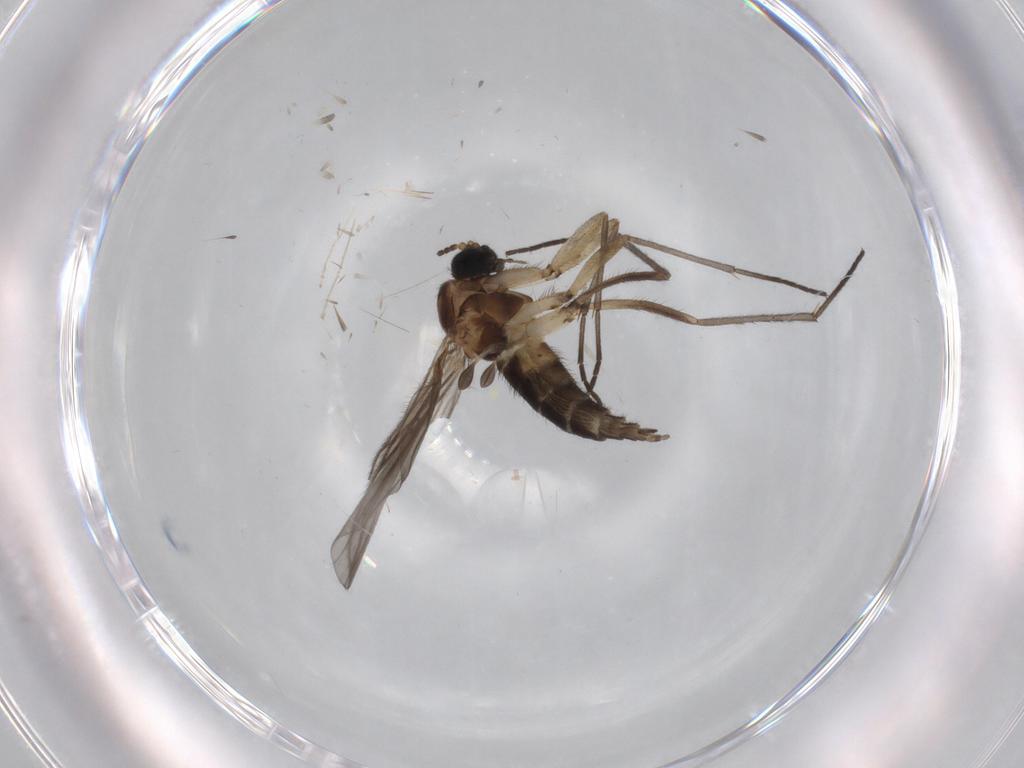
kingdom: Animalia
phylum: Arthropoda
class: Insecta
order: Diptera
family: Sciaridae
